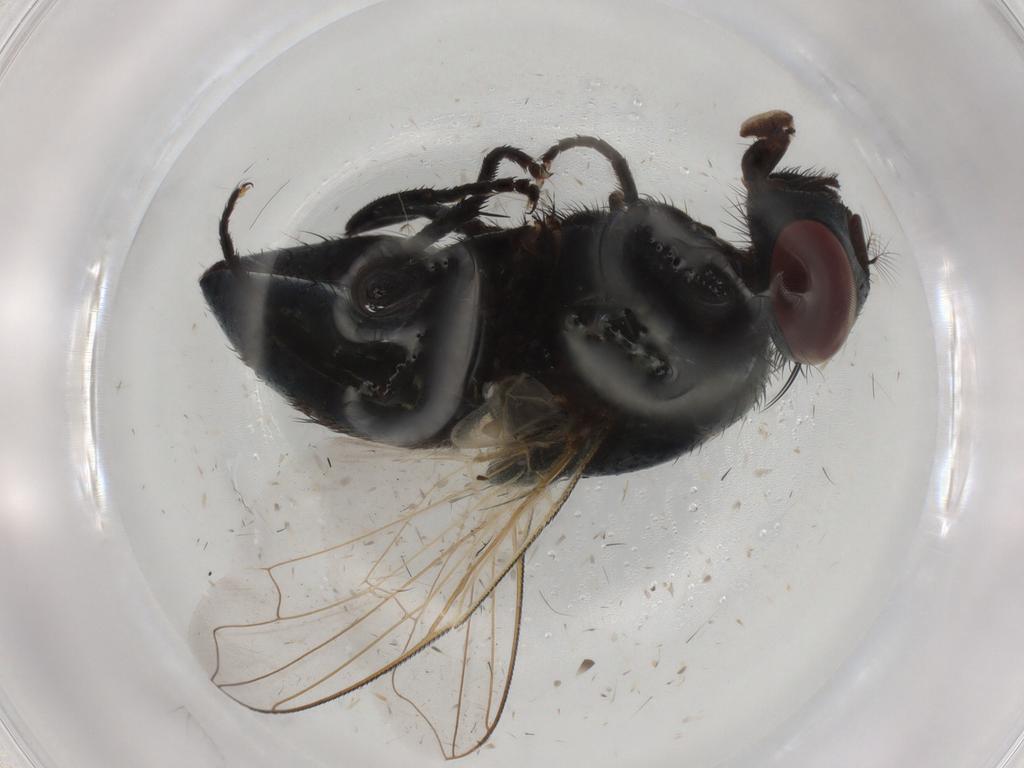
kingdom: Animalia
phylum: Arthropoda
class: Insecta
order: Diptera
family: Muscidae
